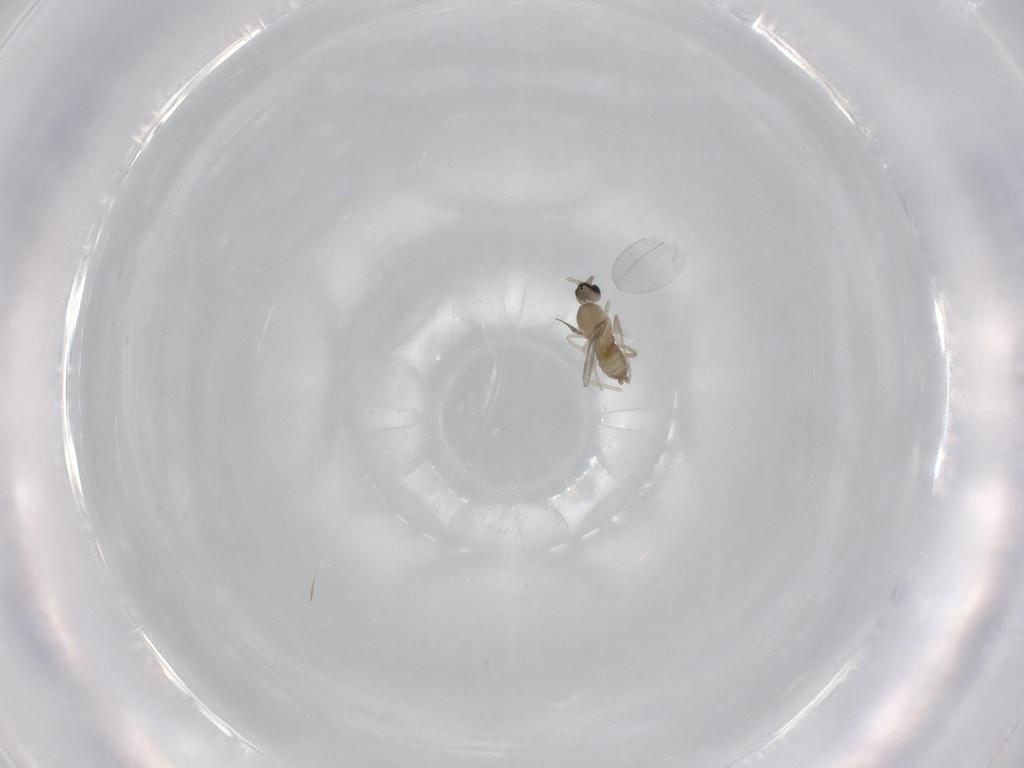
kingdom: Animalia
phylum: Arthropoda
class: Insecta
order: Diptera
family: Cecidomyiidae
